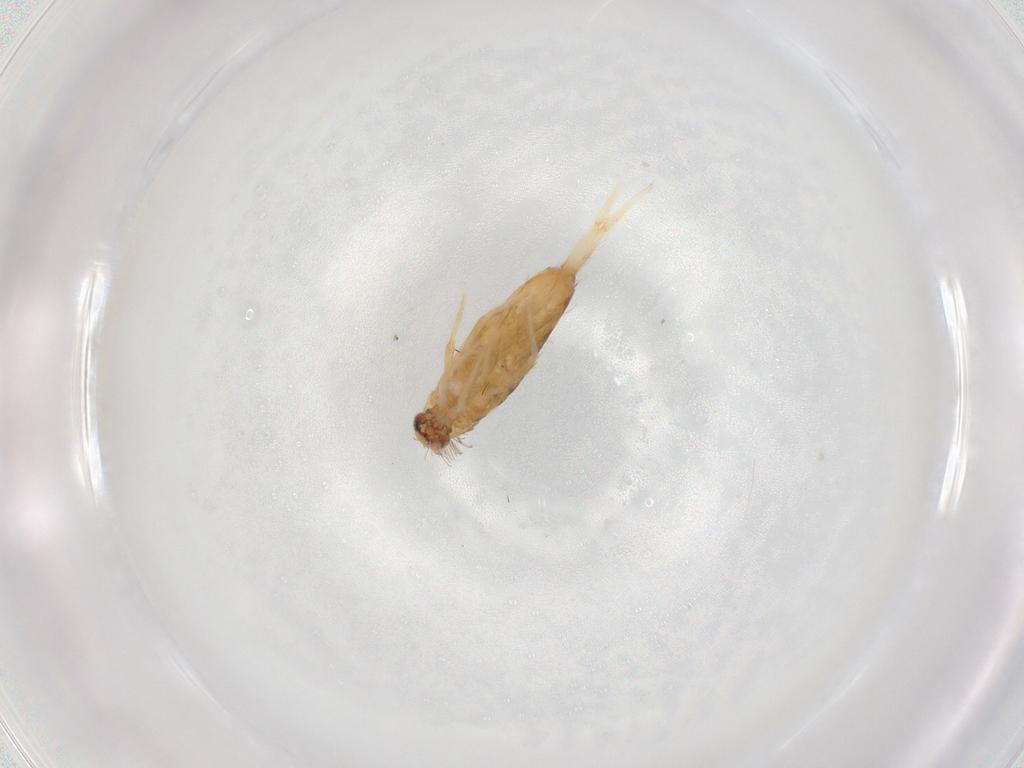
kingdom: Animalia
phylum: Arthropoda
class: Collembola
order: Entomobryomorpha
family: Entomobryidae
